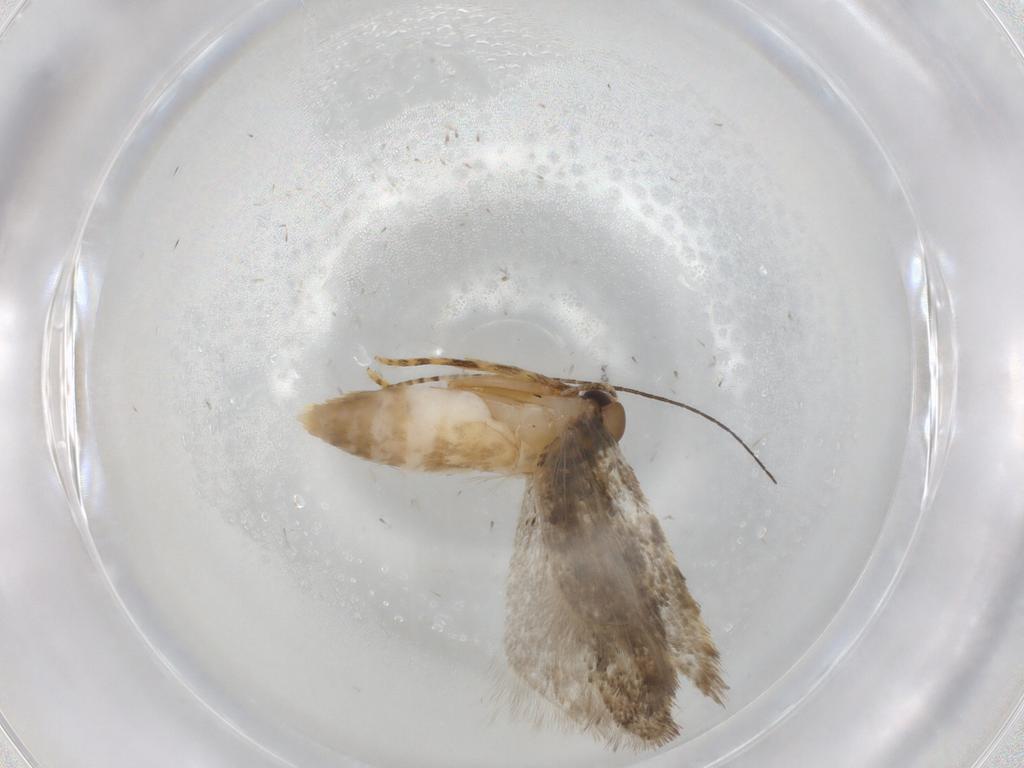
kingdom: Animalia
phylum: Arthropoda
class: Insecta
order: Lepidoptera
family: Autostichidae
